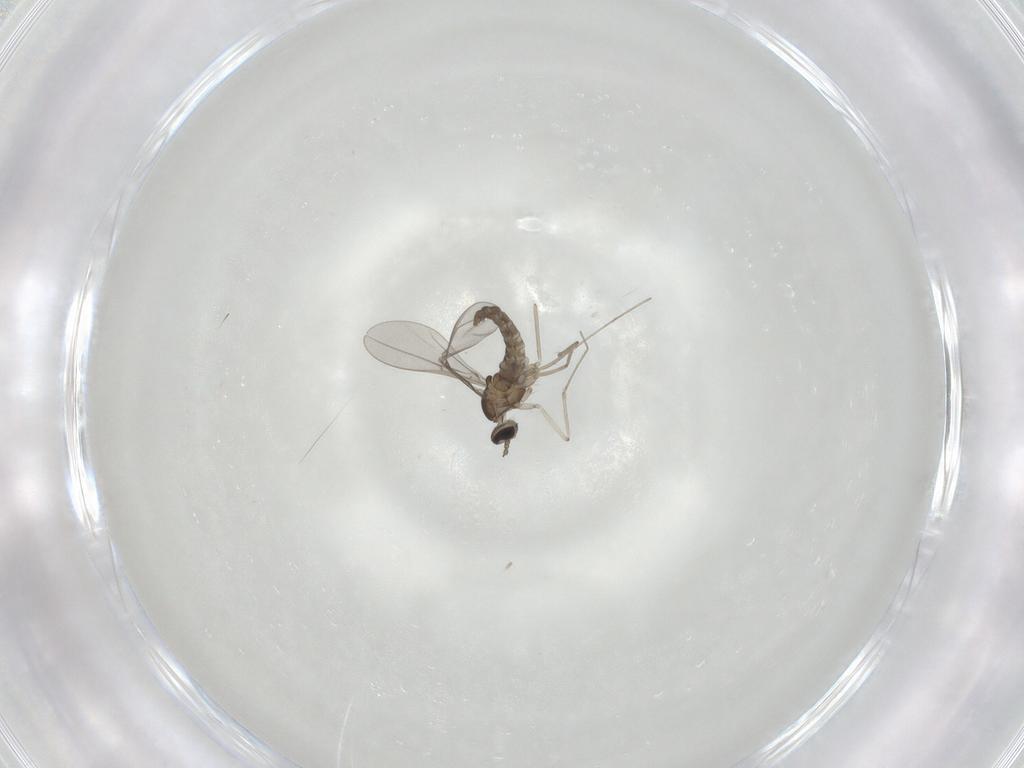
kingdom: Animalia
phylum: Arthropoda
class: Insecta
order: Diptera
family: Cecidomyiidae
